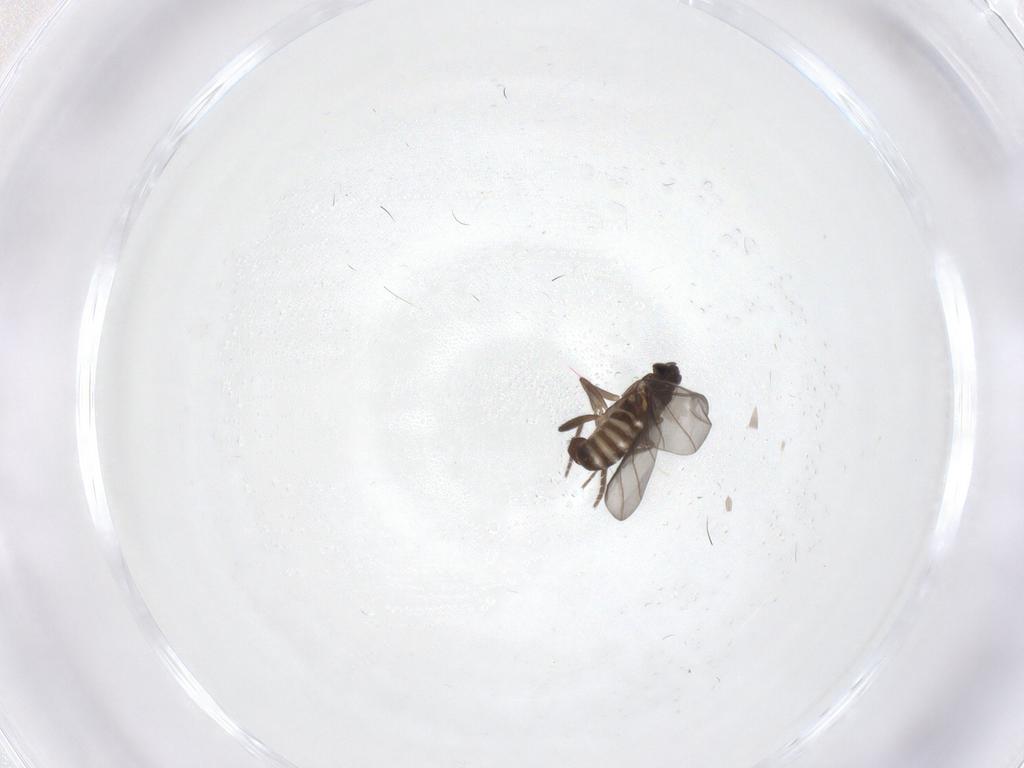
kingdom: Animalia
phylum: Arthropoda
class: Insecta
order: Diptera
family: Phoridae
